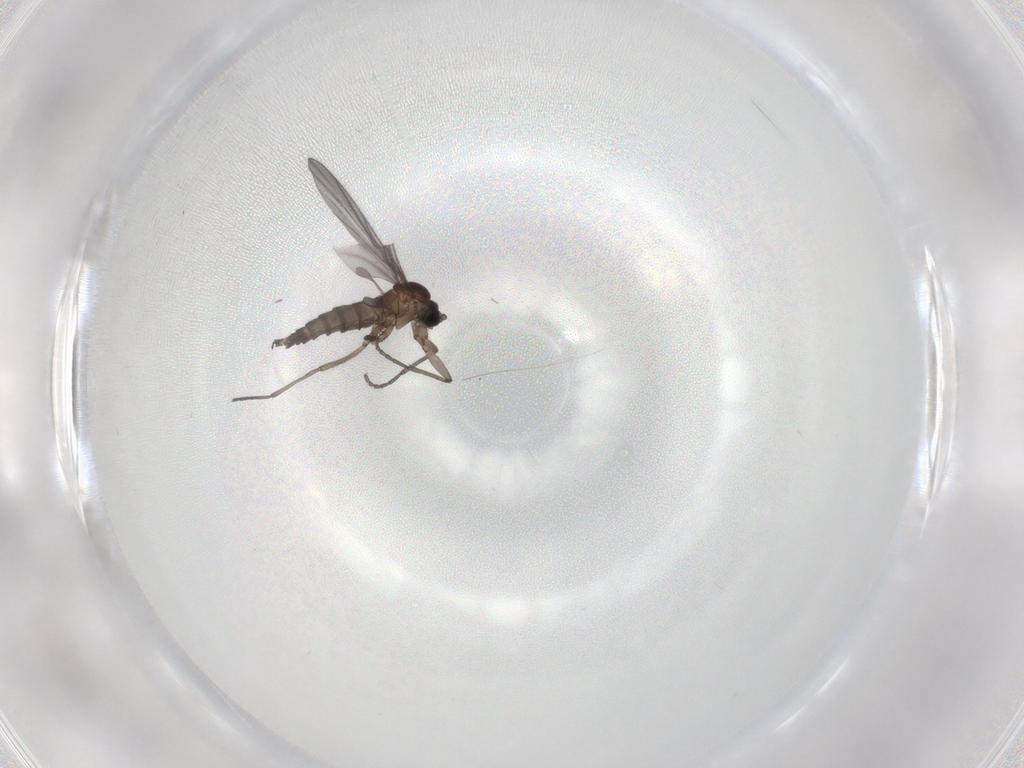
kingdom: Animalia
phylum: Arthropoda
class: Insecta
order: Diptera
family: Sciaridae
